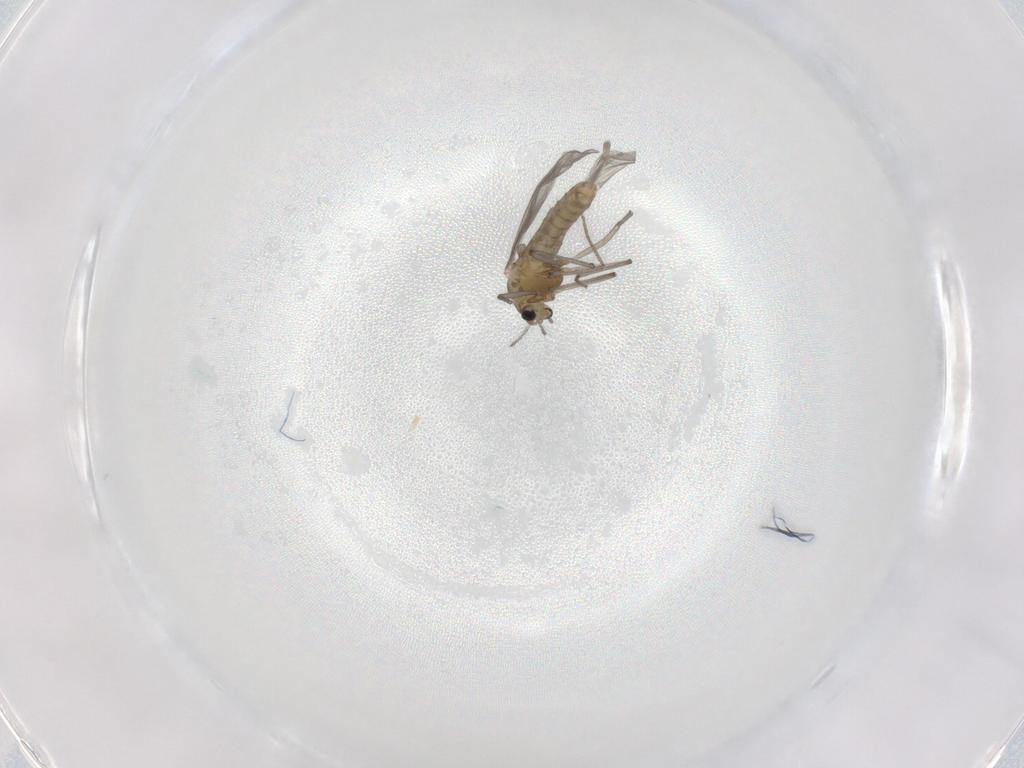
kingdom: Animalia
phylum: Arthropoda
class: Insecta
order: Diptera
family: Chironomidae
